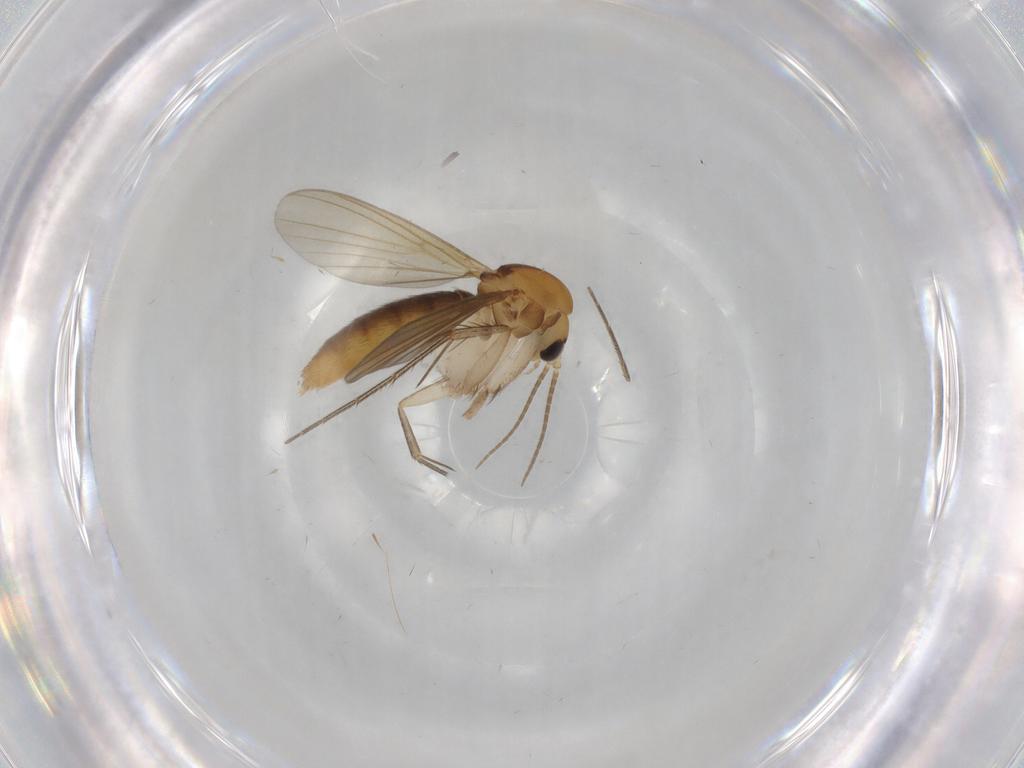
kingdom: Animalia
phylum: Arthropoda
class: Insecta
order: Diptera
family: Mycetophilidae
